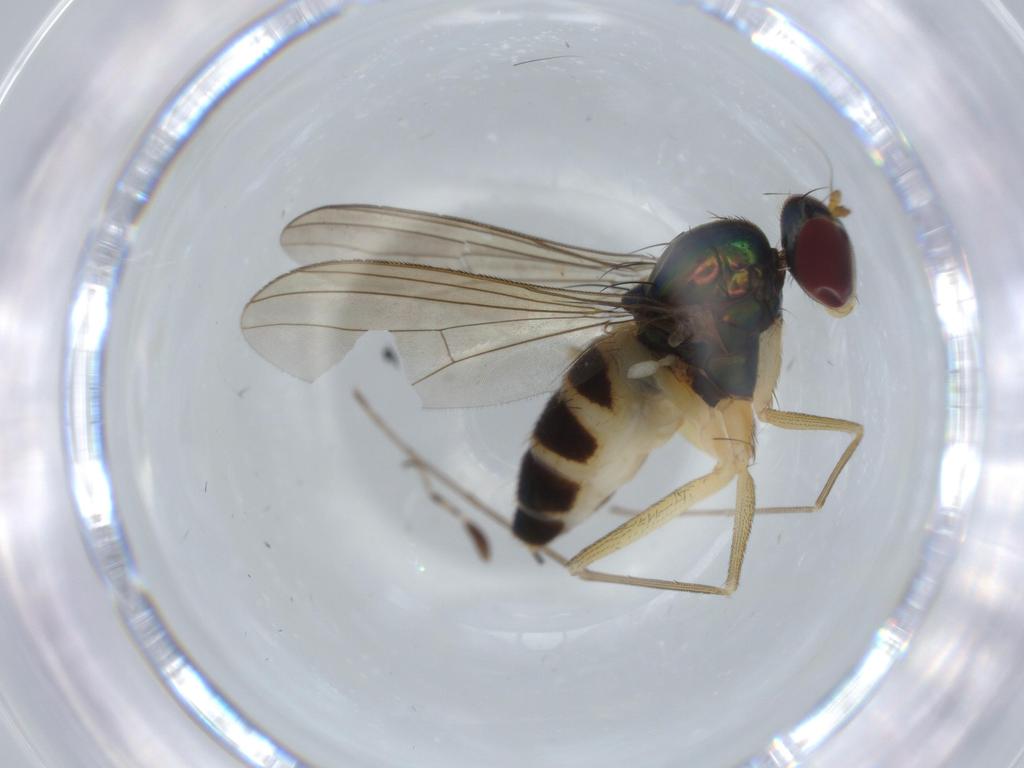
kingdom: Animalia
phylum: Arthropoda
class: Insecta
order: Diptera
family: Dolichopodidae
